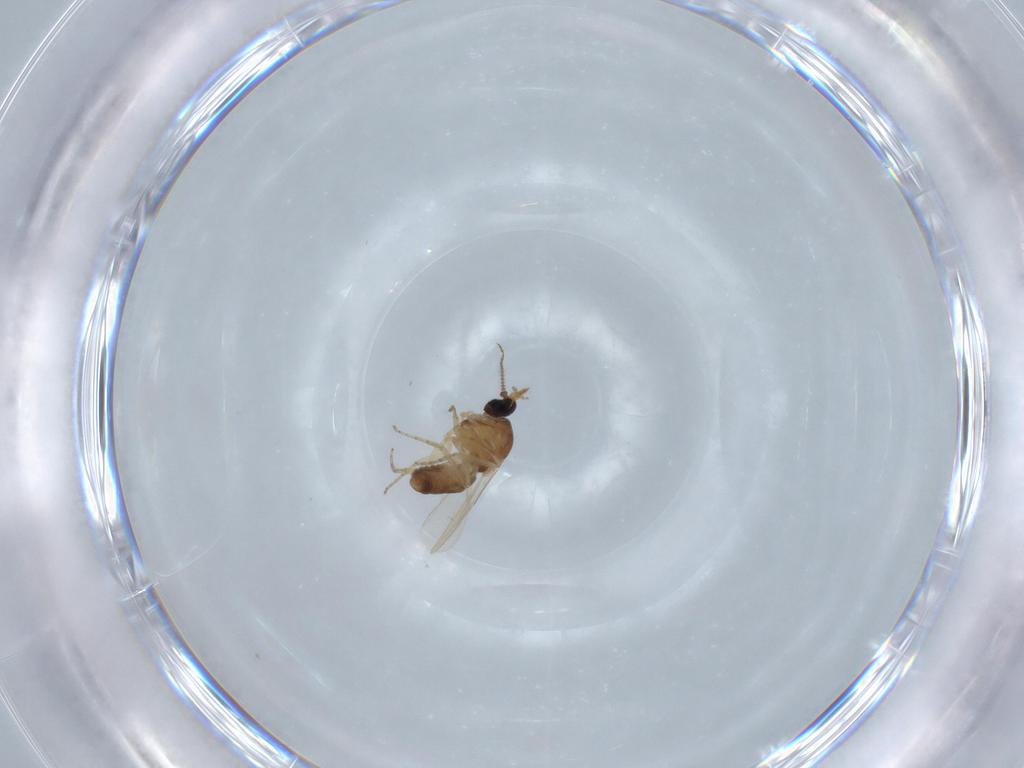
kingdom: Animalia
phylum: Arthropoda
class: Insecta
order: Diptera
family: Ceratopogonidae
